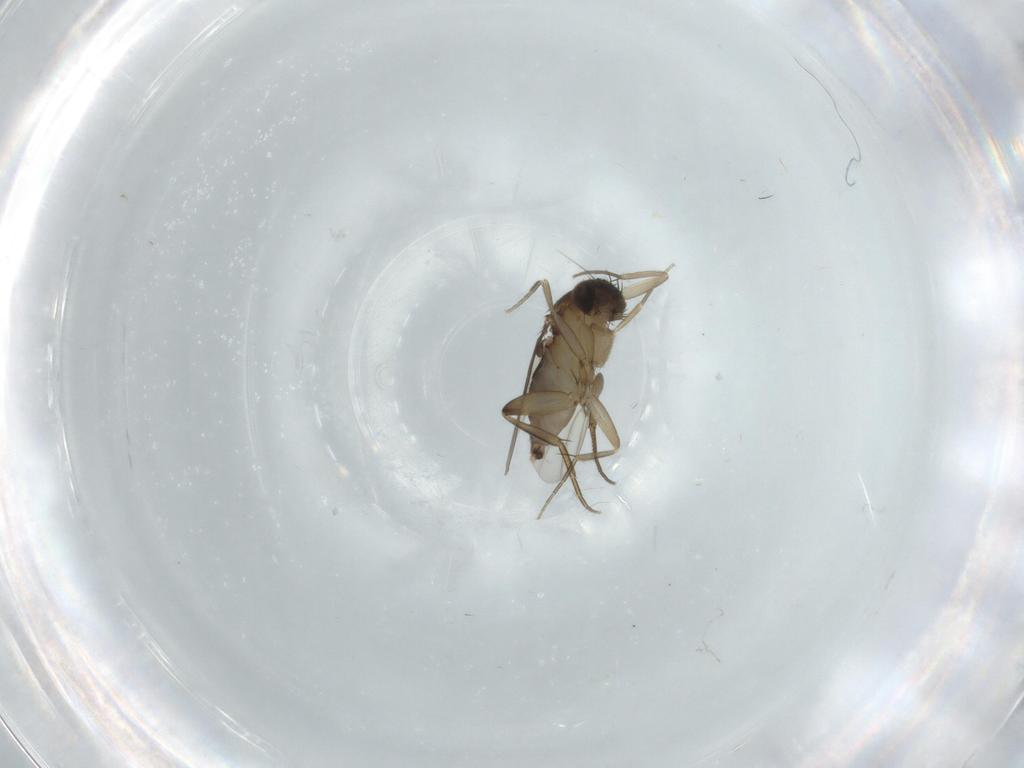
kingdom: Animalia
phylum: Arthropoda
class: Insecta
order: Diptera
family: Phoridae
